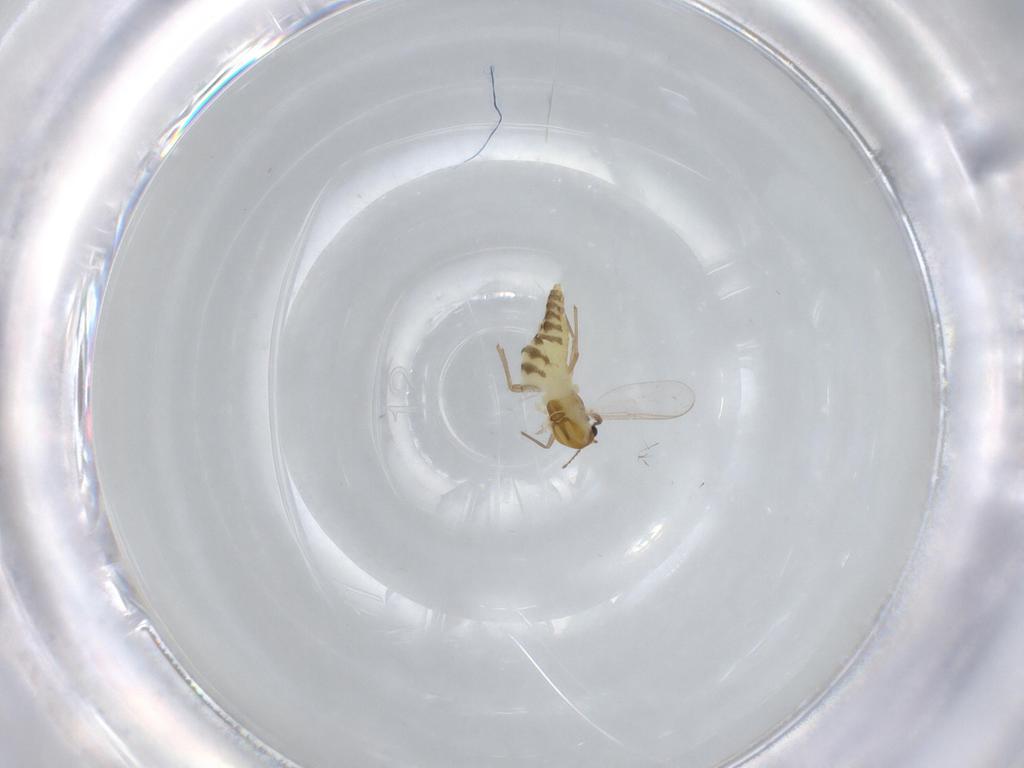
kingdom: Animalia
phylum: Arthropoda
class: Insecta
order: Diptera
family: Chironomidae
